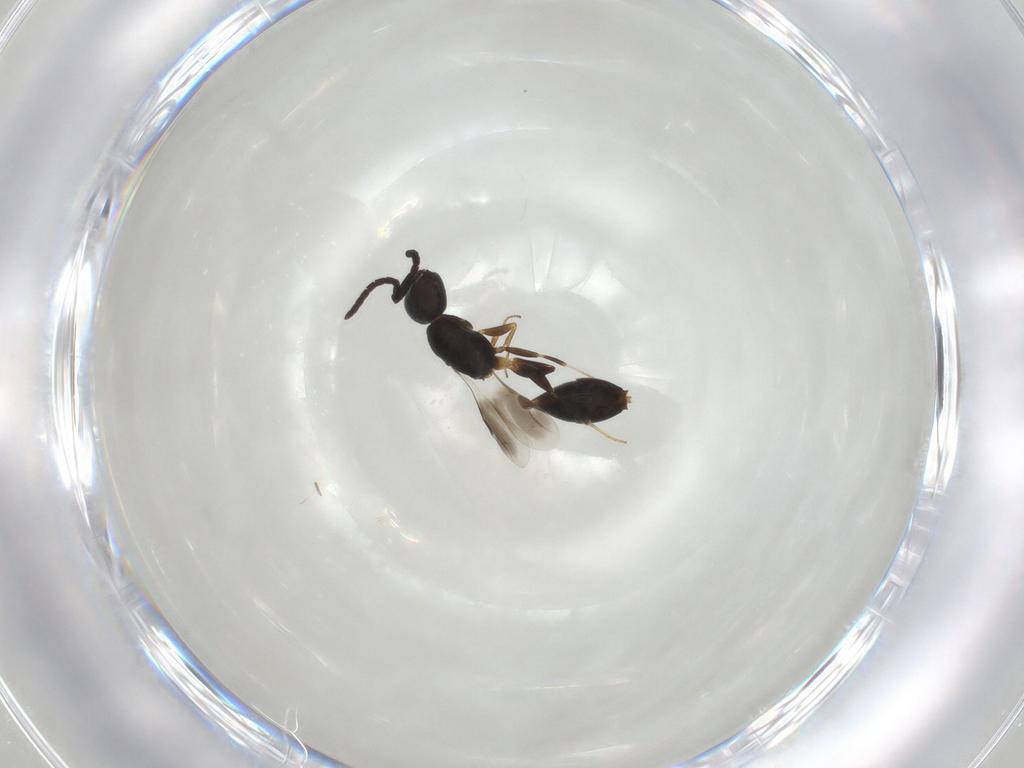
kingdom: Animalia
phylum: Arthropoda
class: Insecta
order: Hymenoptera
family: Megaspilidae
